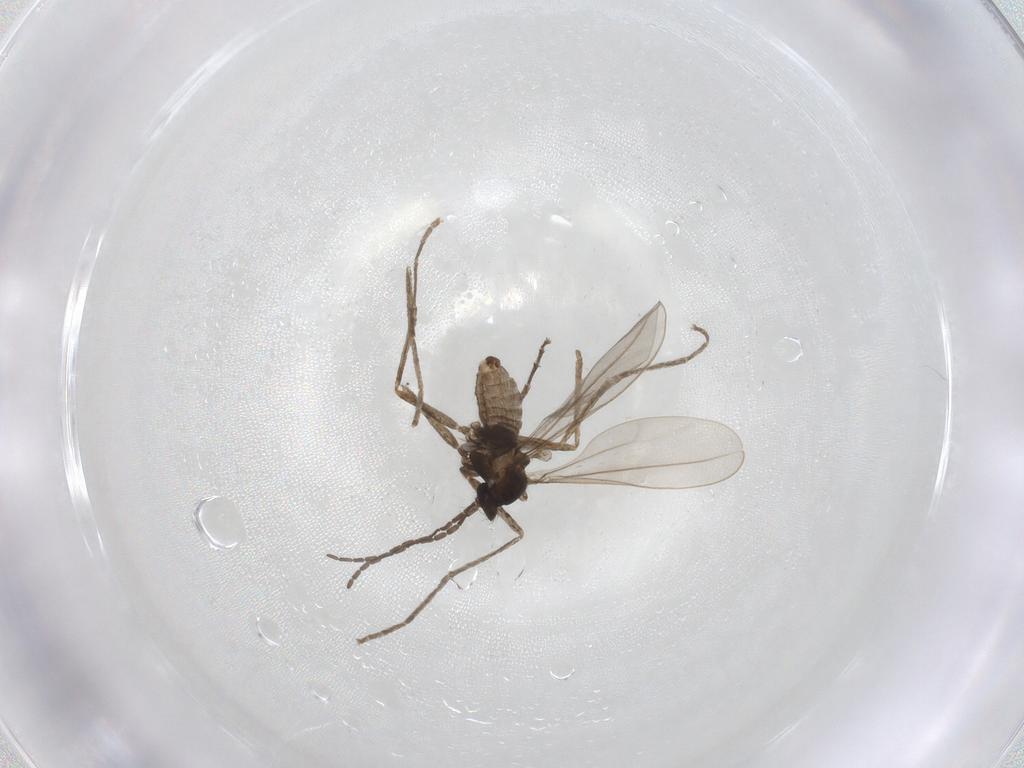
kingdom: Animalia
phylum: Arthropoda
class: Insecta
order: Diptera
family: Cecidomyiidae
